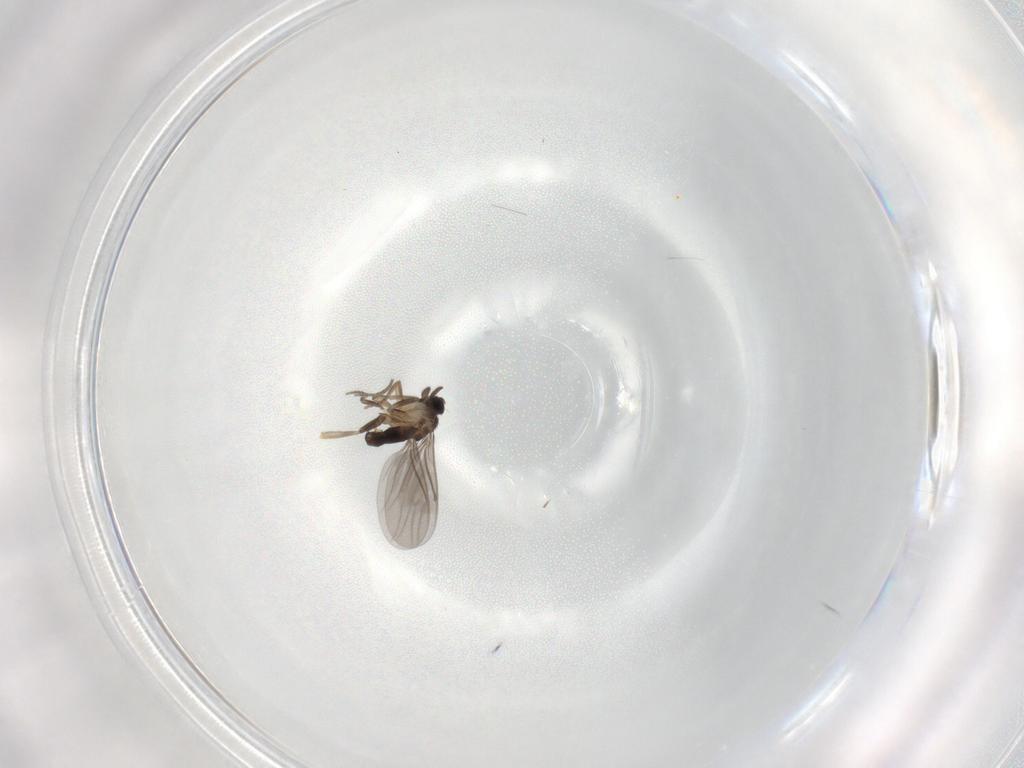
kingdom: Animalia
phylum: Arthropoda
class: Insecta
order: Diptera
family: Phoridae
